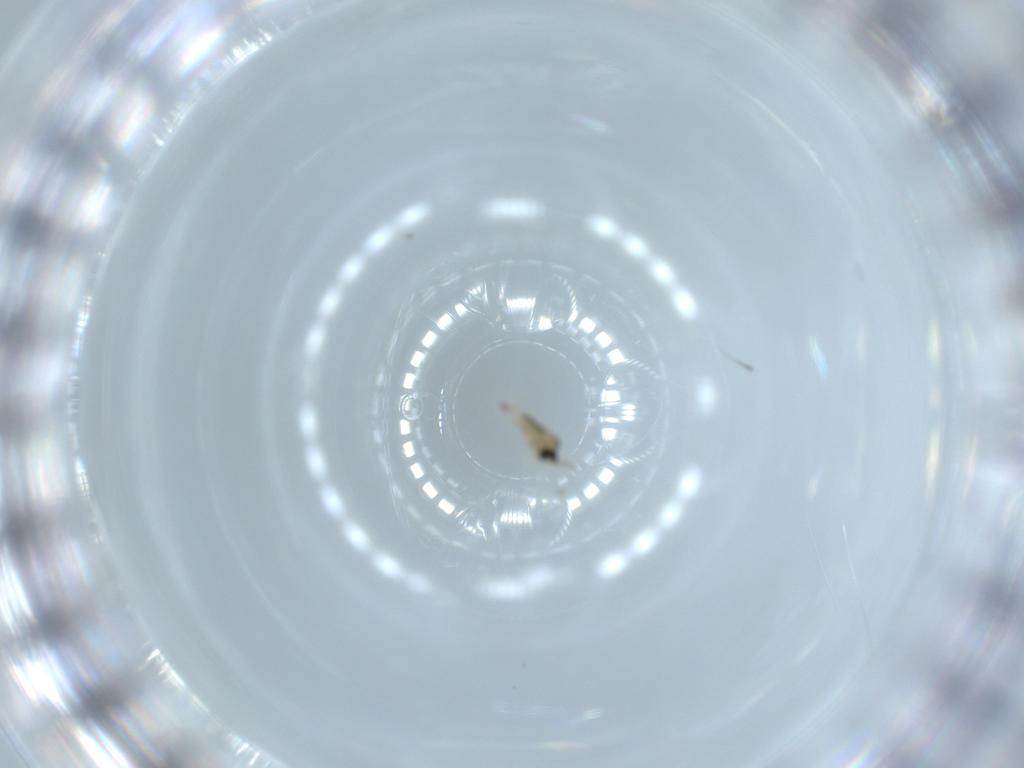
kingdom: Animalia
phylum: Arthropoda
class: Insecta
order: Diptera
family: Cecidomyiidae
